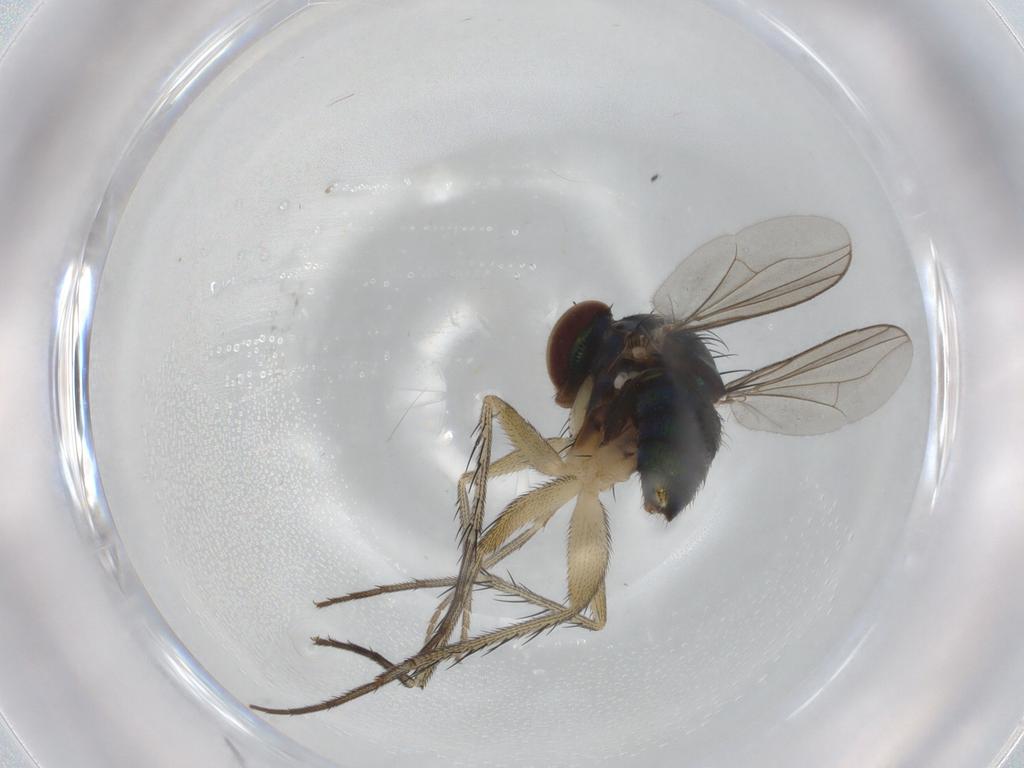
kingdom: Animalia
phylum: Arthropoda
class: Insecta
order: Diptera
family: Dolichopodidae
